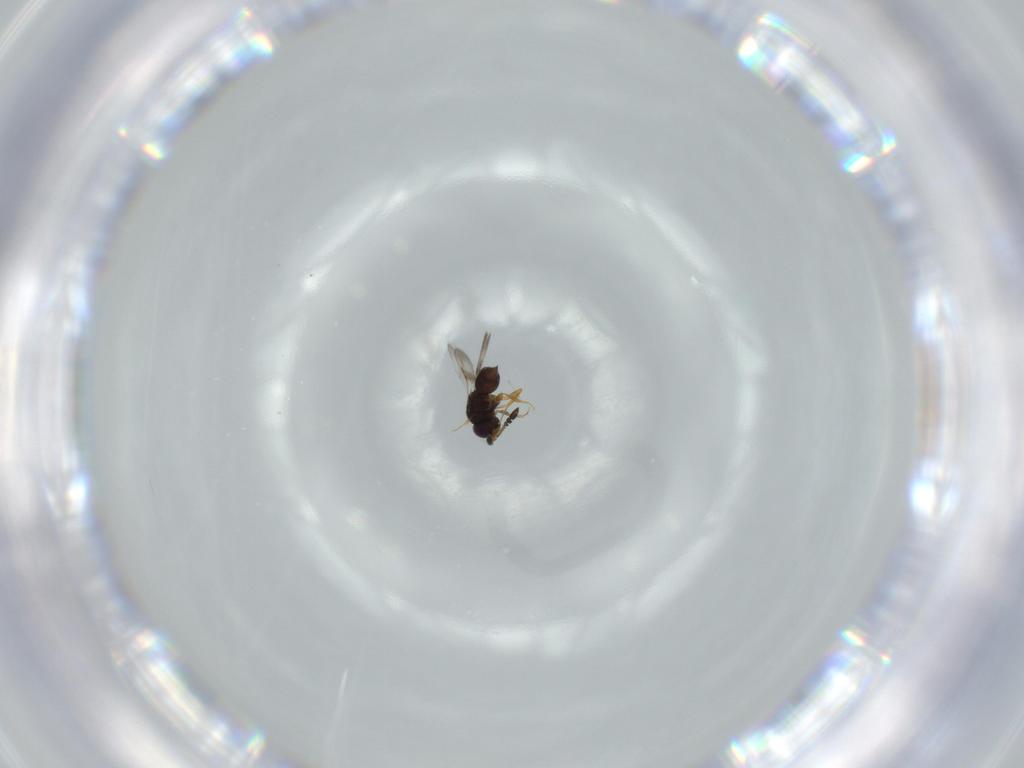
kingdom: Animalia
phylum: Arthropoda
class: Insecta
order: Hymenoptera
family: Ceraphronidae
